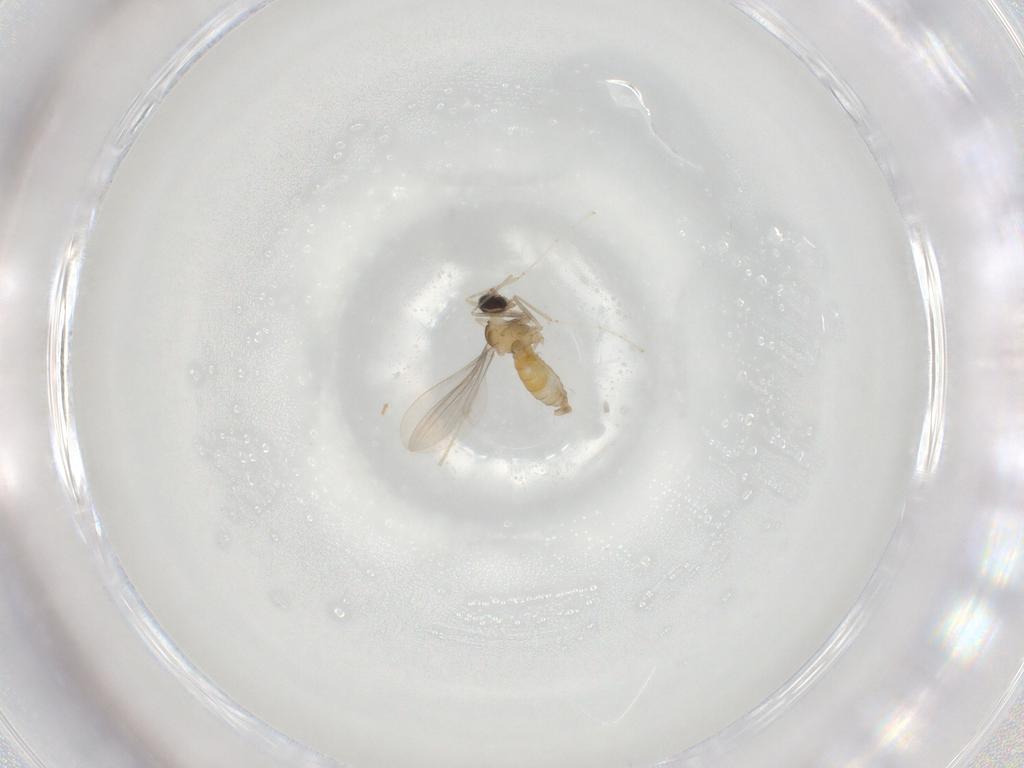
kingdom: Animalia
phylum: Arthropoda
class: Insecta
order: Diptera
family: Cecidomyiidae
